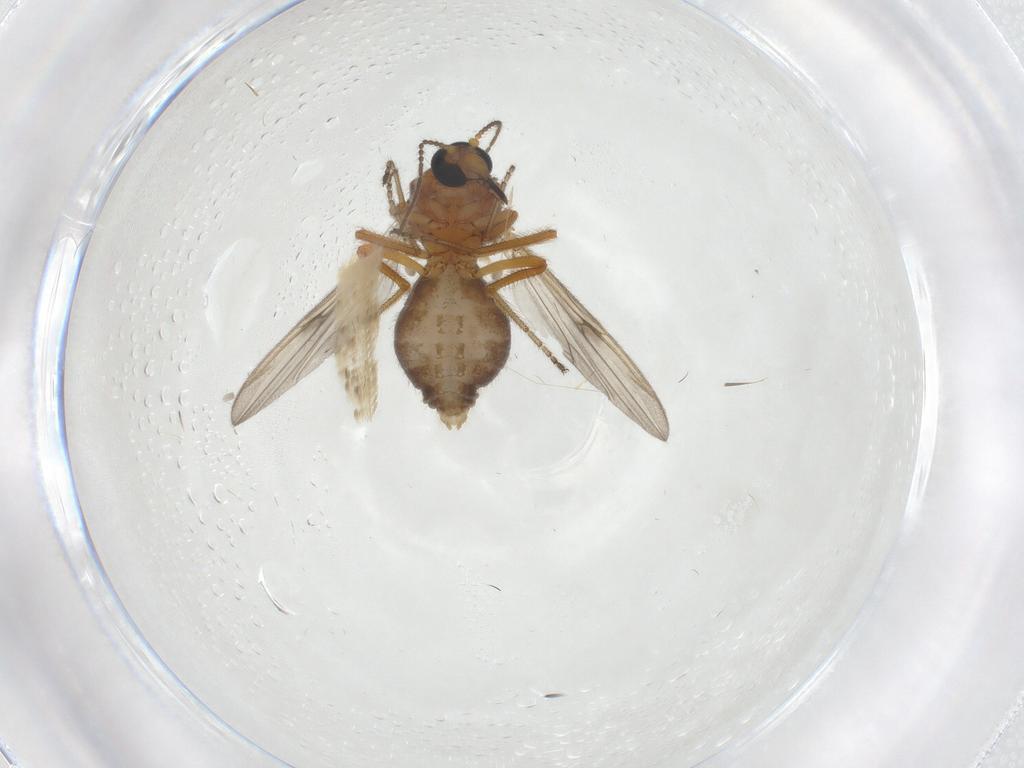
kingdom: Animalia
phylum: Arthropoda
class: Insecta
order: Diptera
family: Ceratopogonidae
